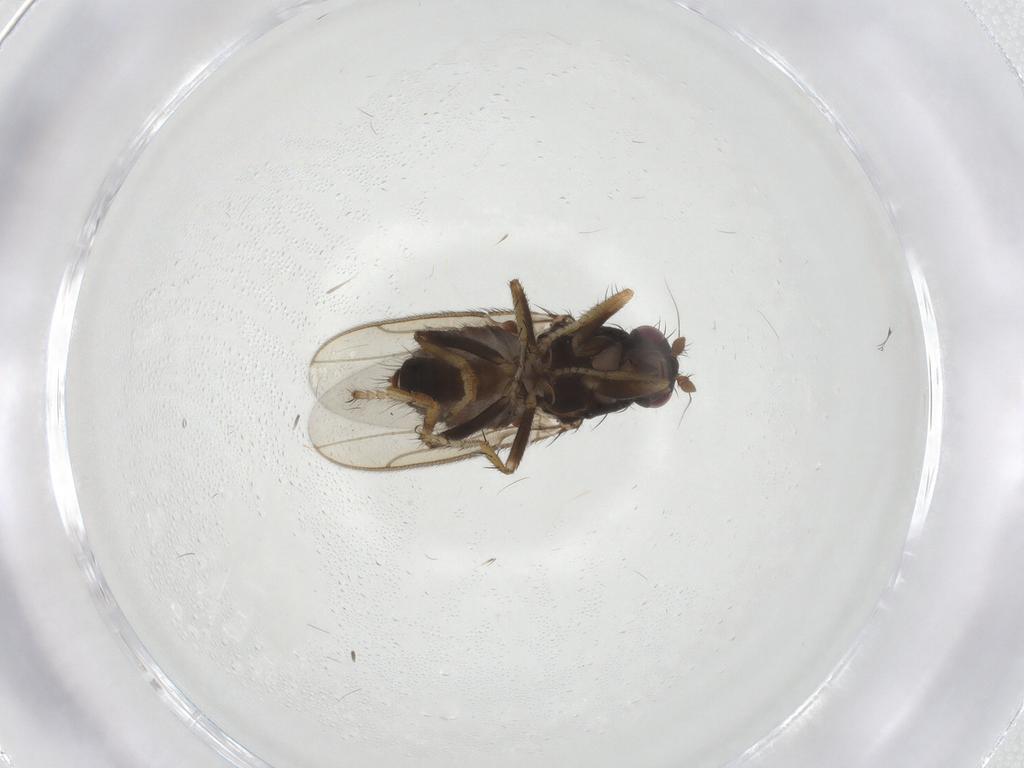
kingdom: Animalia
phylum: Arthropoda
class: Insecta
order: Diptera
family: Sphaeroceridae
